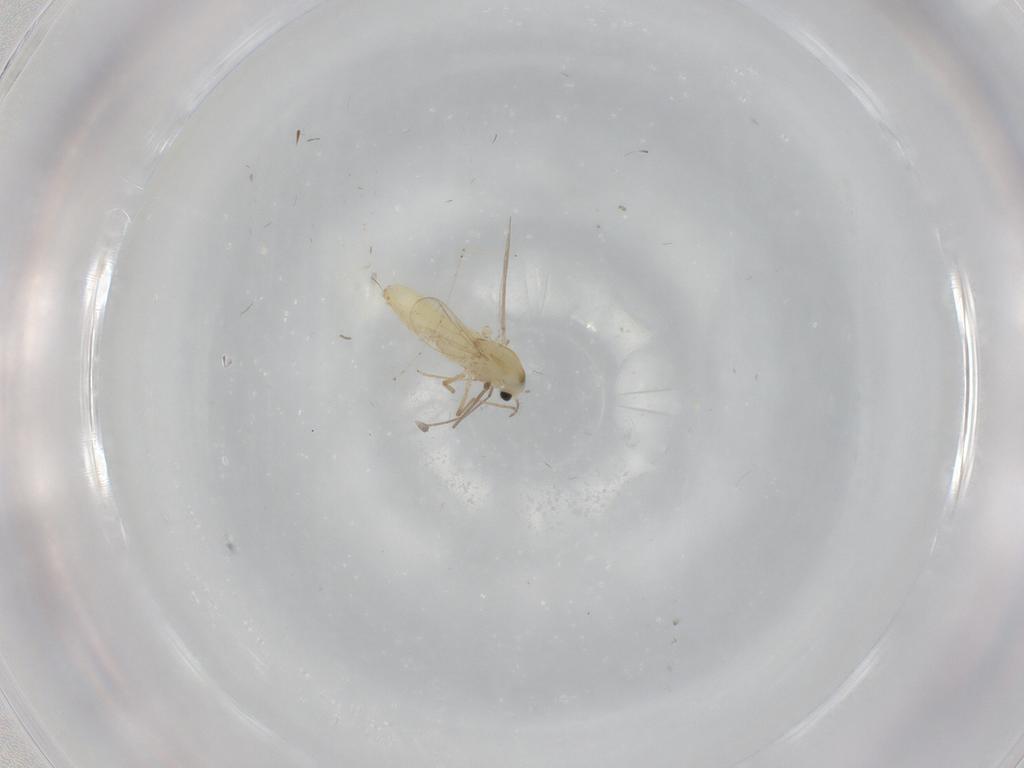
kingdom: Animalia
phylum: Arthropoda
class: Insecta
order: Diptera
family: Chironomidae
